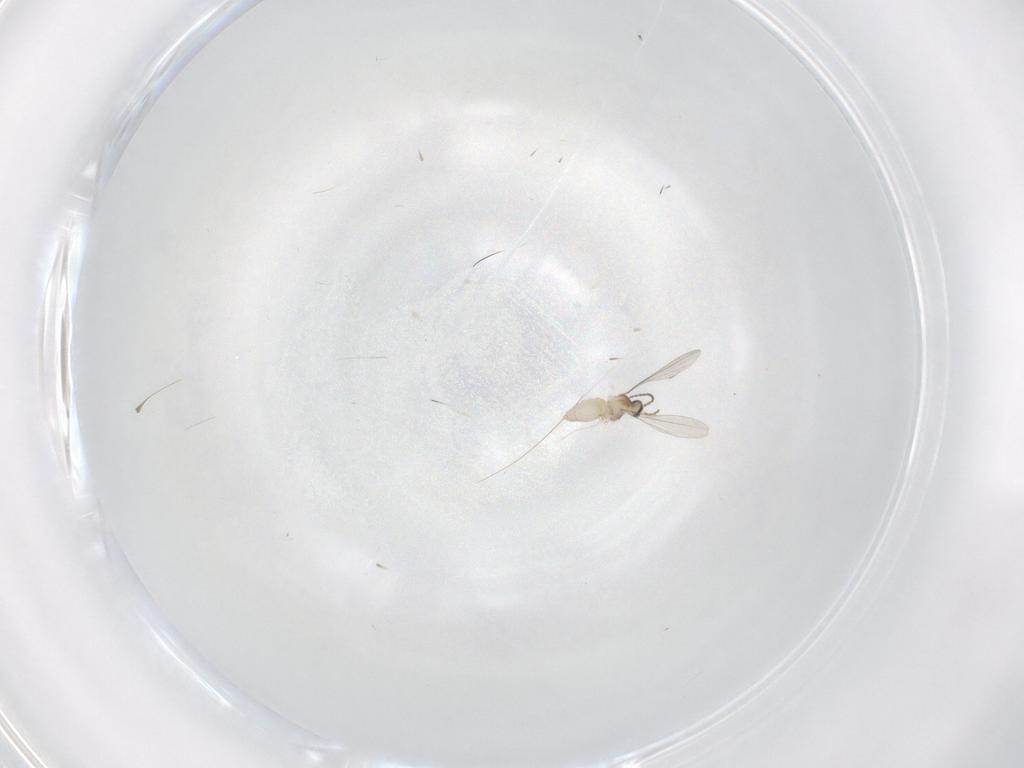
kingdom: Animalia
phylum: Arthropoda
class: Insecta
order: Diptera
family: Cecidomyiidae
